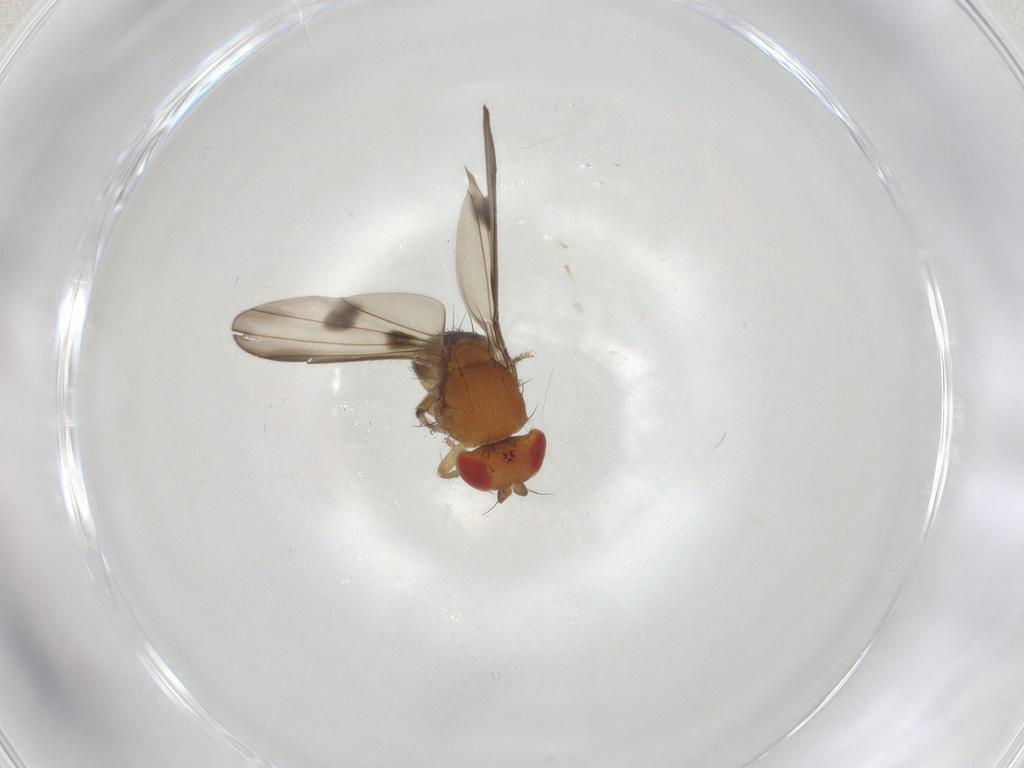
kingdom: Animalia
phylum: Arthropoda
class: Insecta
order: Diptera
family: Drosophilidae
